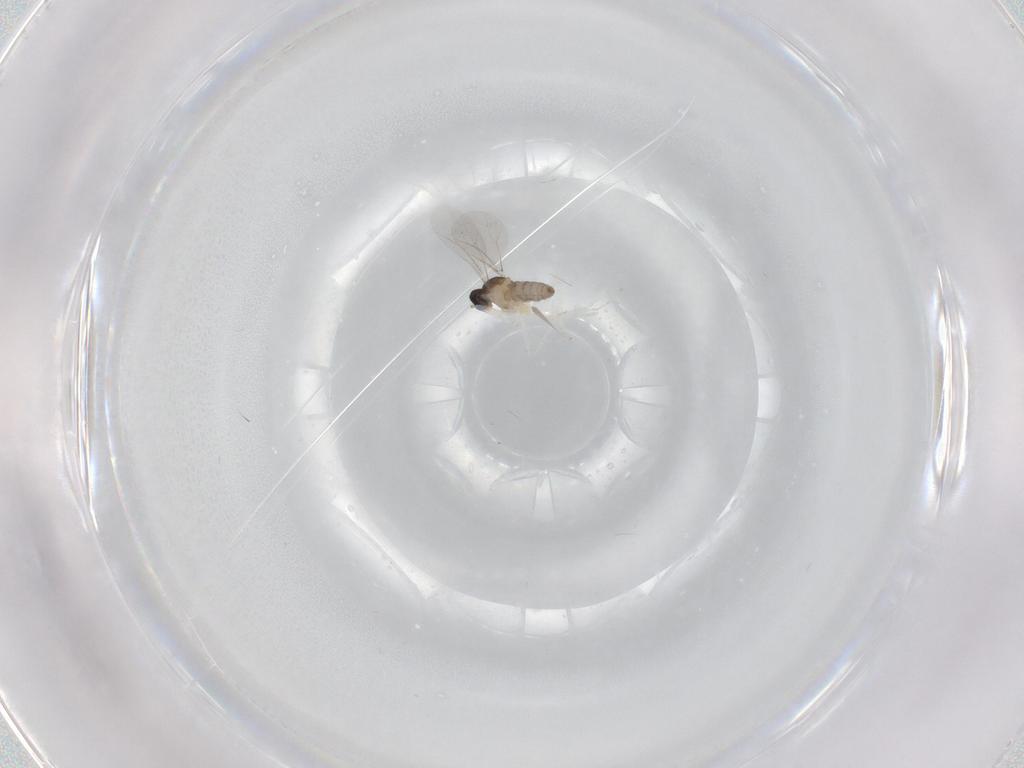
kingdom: Animalia
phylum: Arthropoda
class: Insecta
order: Diptera
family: Cecidomyiidae
